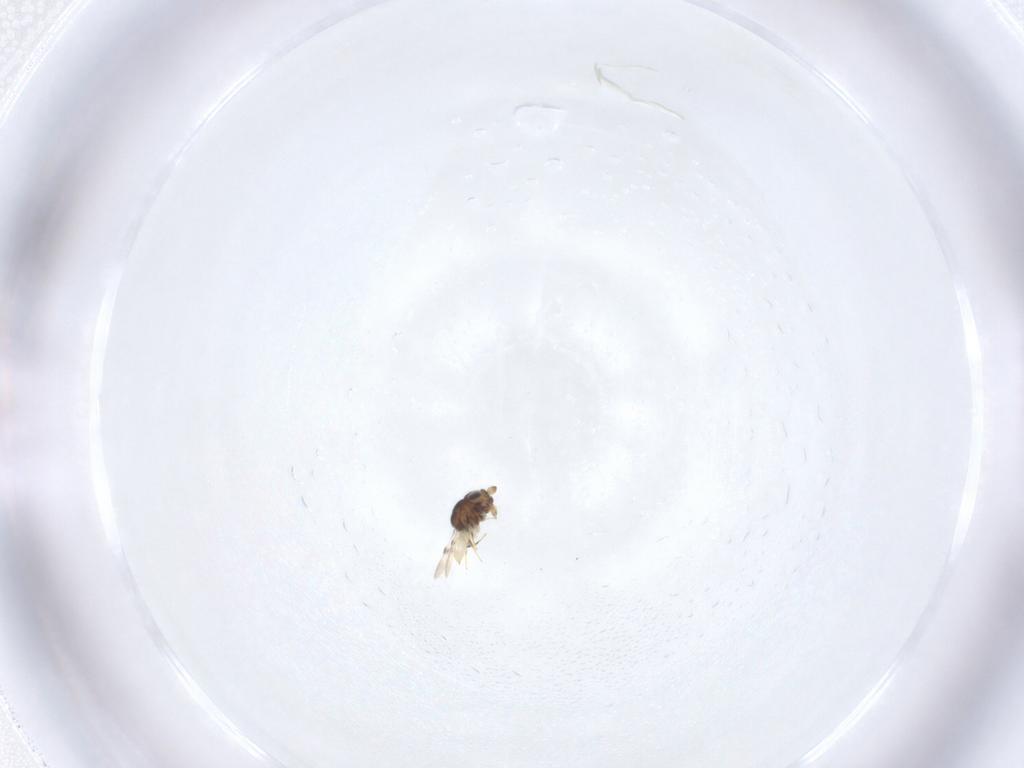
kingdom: Animalia
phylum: Arthropoda
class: Insecta
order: Hymenoptera
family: Scelionidae
